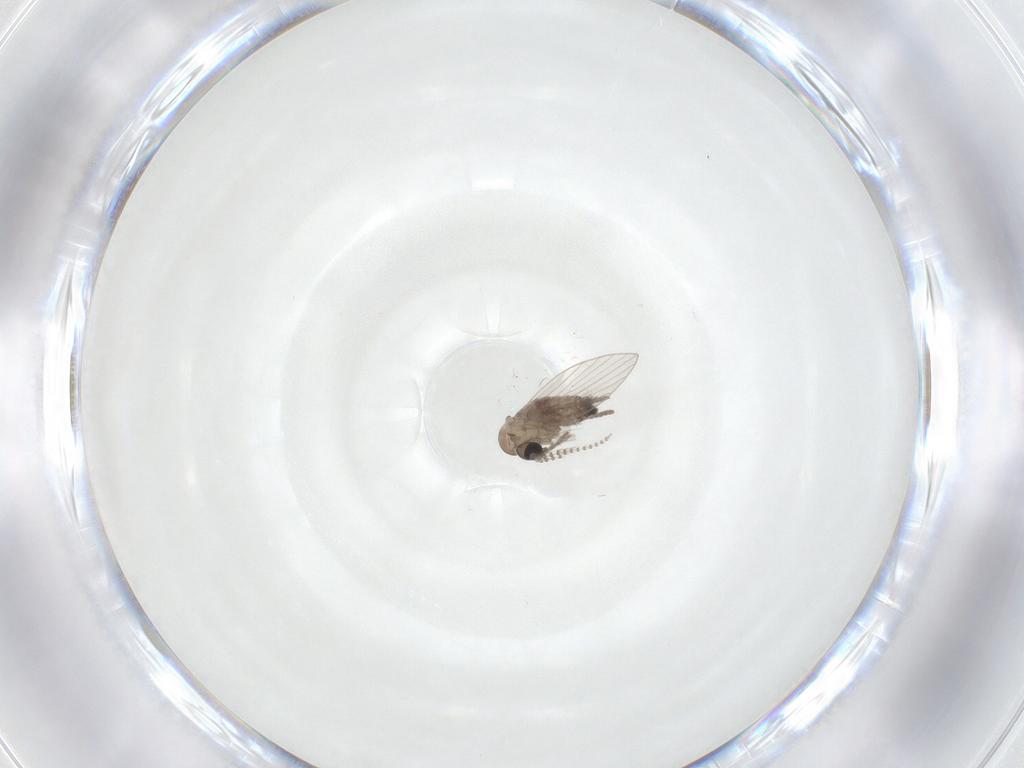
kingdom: Animalia
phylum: Arthropoda
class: Insecta
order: Diptera
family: Psychodidae
